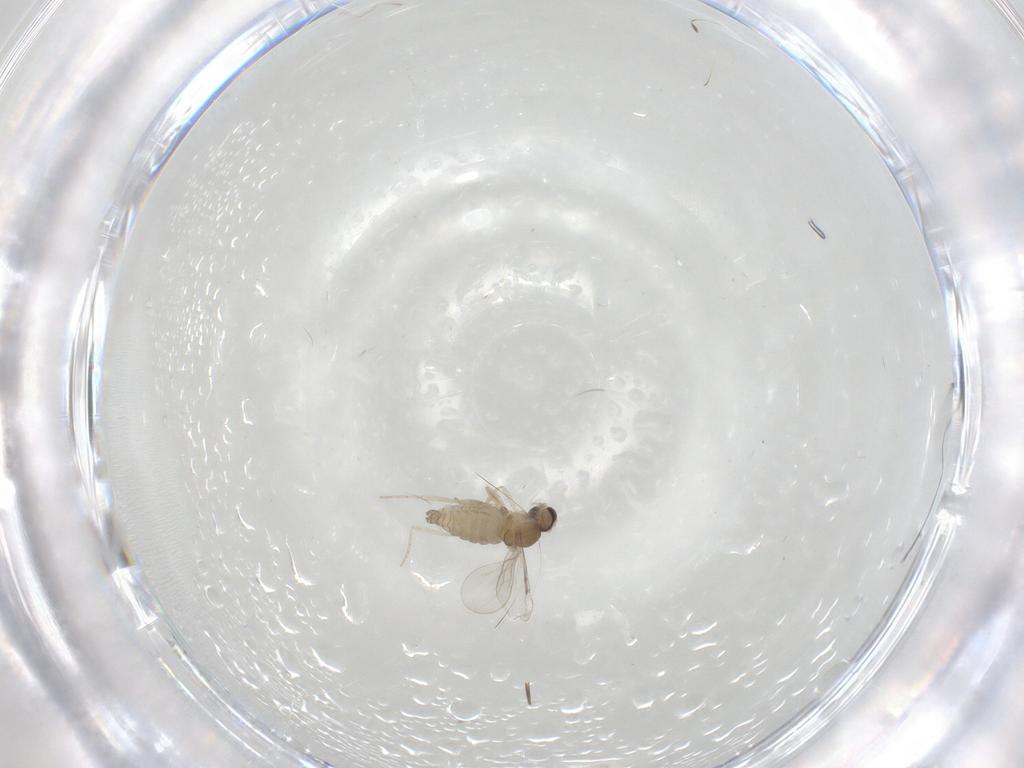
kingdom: Animalia
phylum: Arthropoda
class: Insecta
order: Diptera
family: Cecidomyiidae
